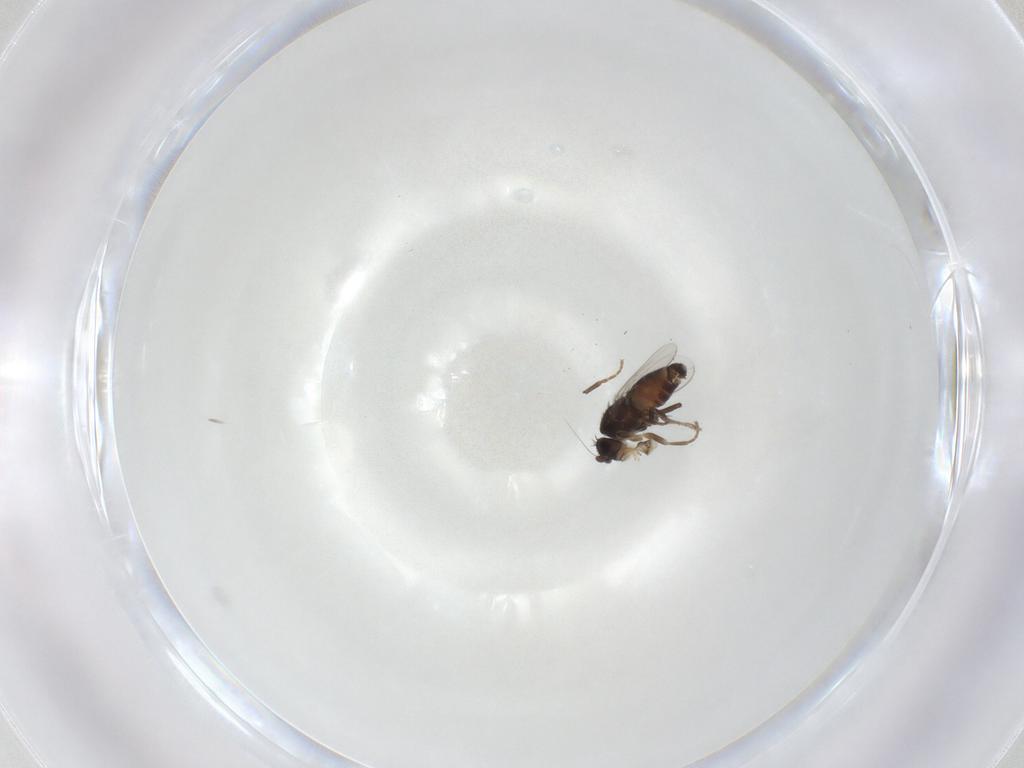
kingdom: Animalia
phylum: Arthropoda
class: Insecta
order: Diptera
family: Sphaeroceridae
